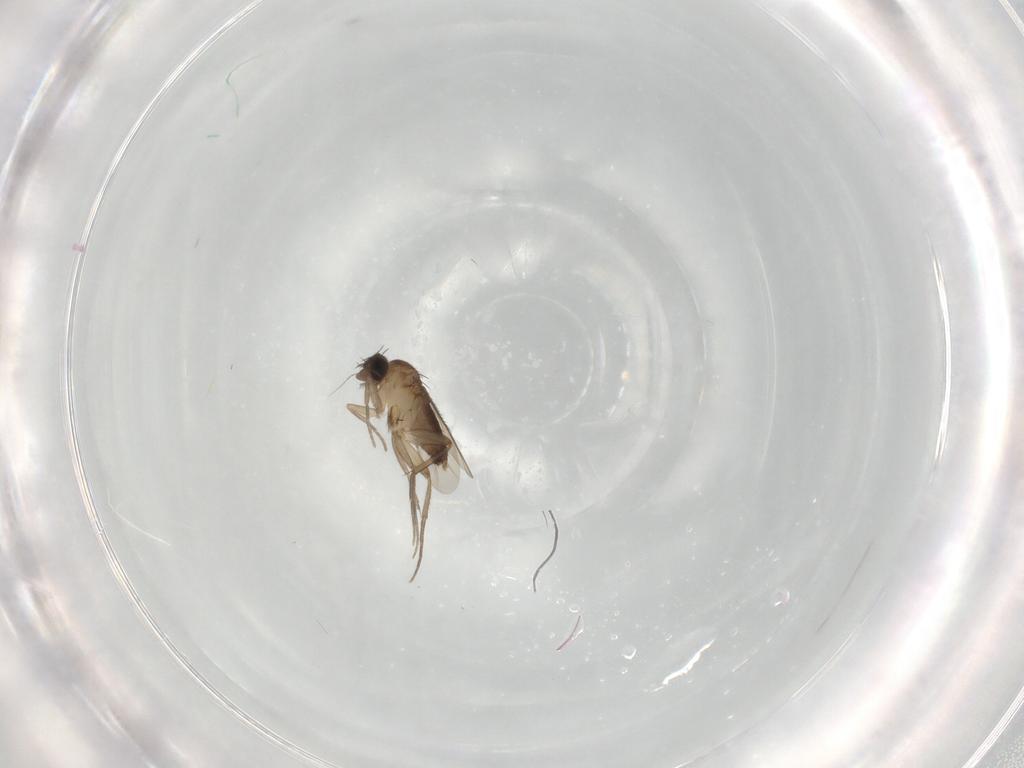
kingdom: Animalia
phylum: Arthropoda
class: Insecta
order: Diptera
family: Phoridae
